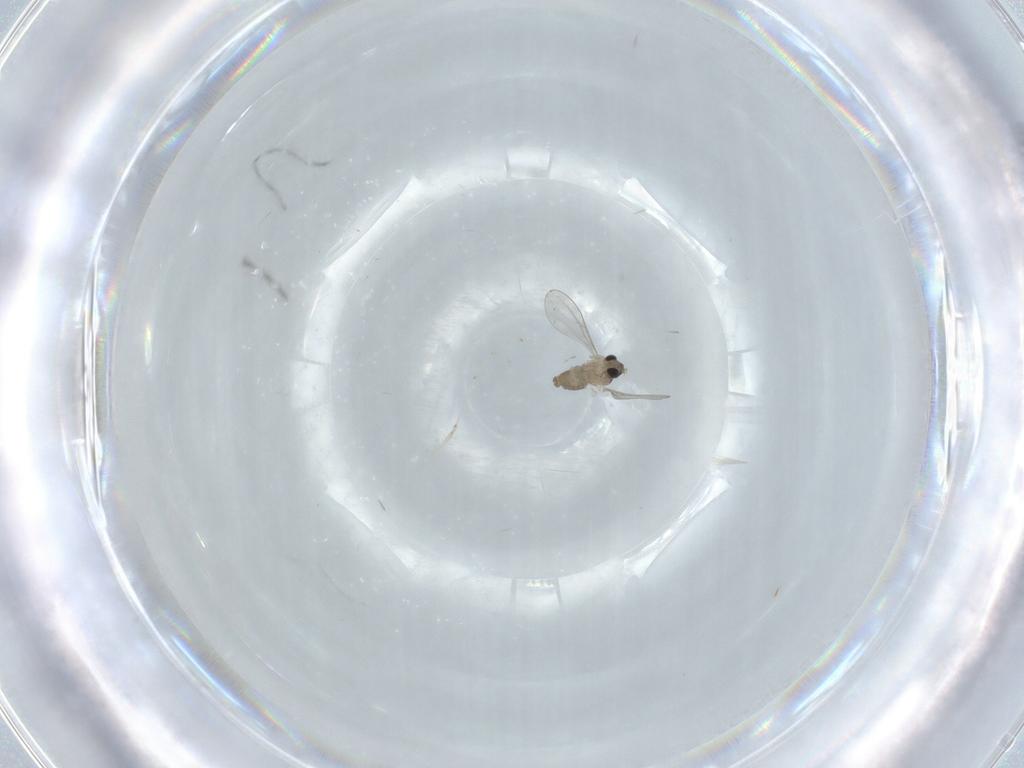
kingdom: Animalia
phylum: Arthropoda
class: Insecta
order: Diptera
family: Cecidomyiidae
